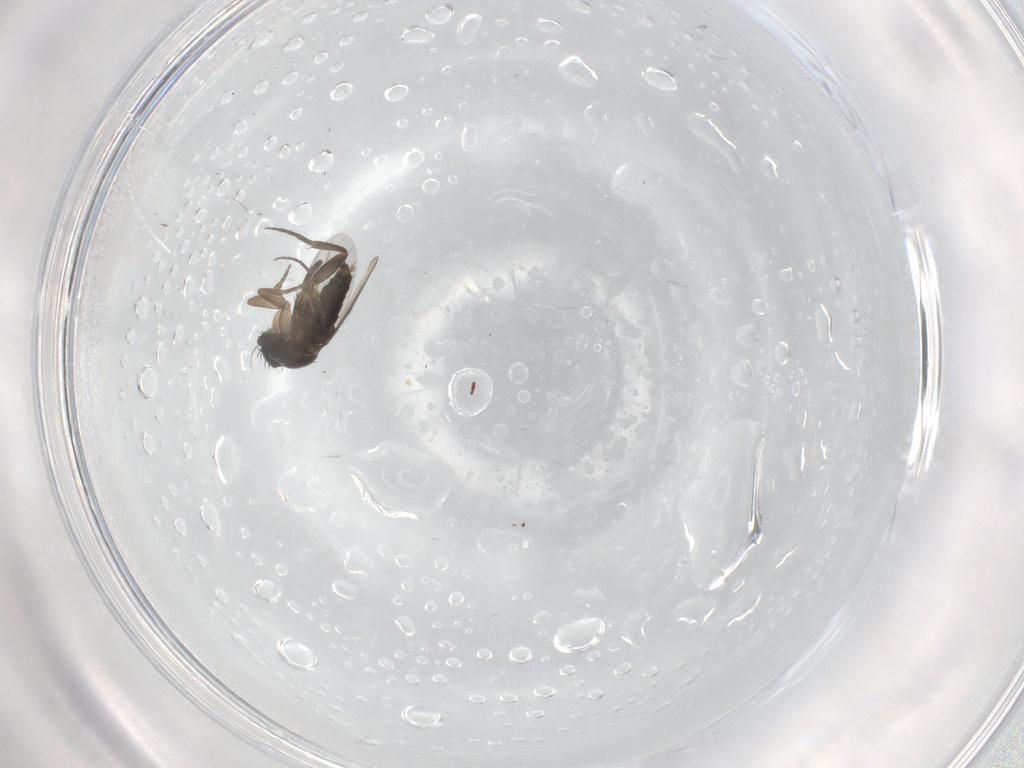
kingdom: Animalia
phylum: Arthropoda
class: Insecta
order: Diptera
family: Phoridae
